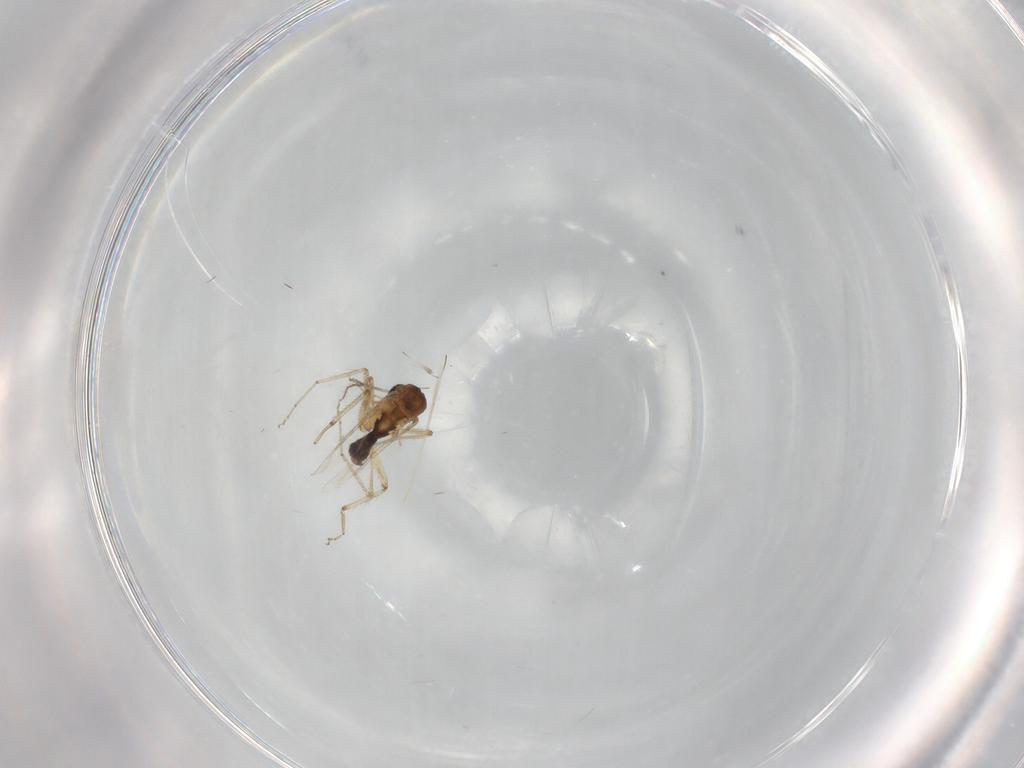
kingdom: Animalia
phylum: Arthropoda
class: Insecta
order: Diptera
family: Ceratopogonidae
